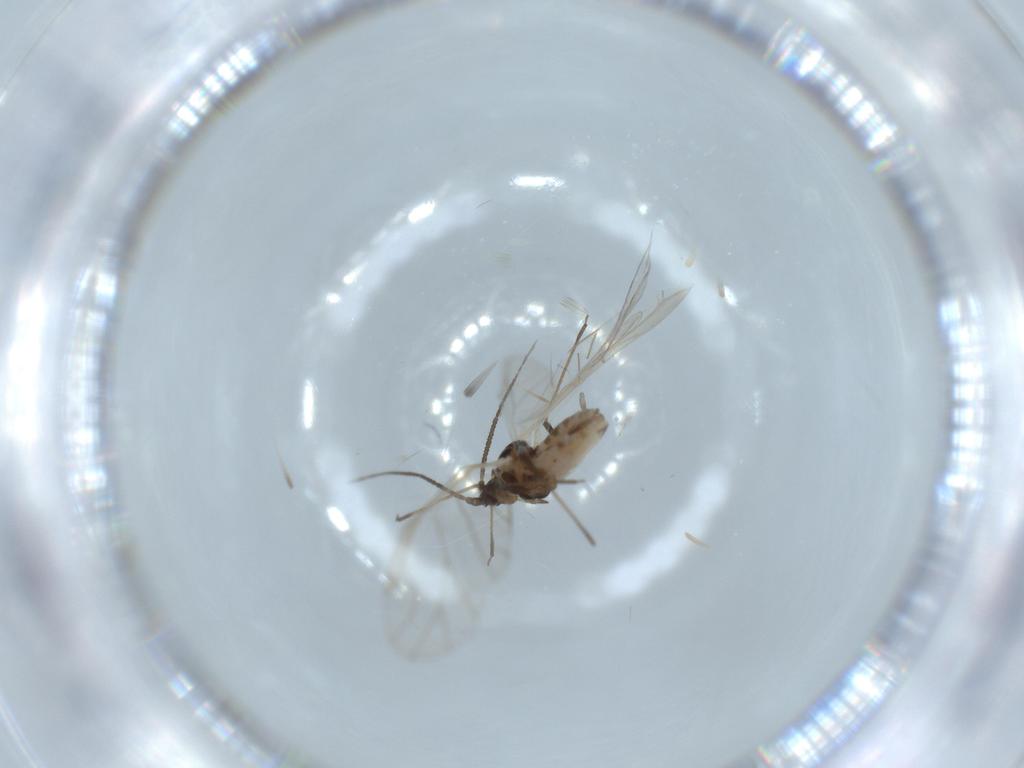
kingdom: Animalia
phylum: Arthropoda
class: Insecta
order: Hemiptera
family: Aphididae
